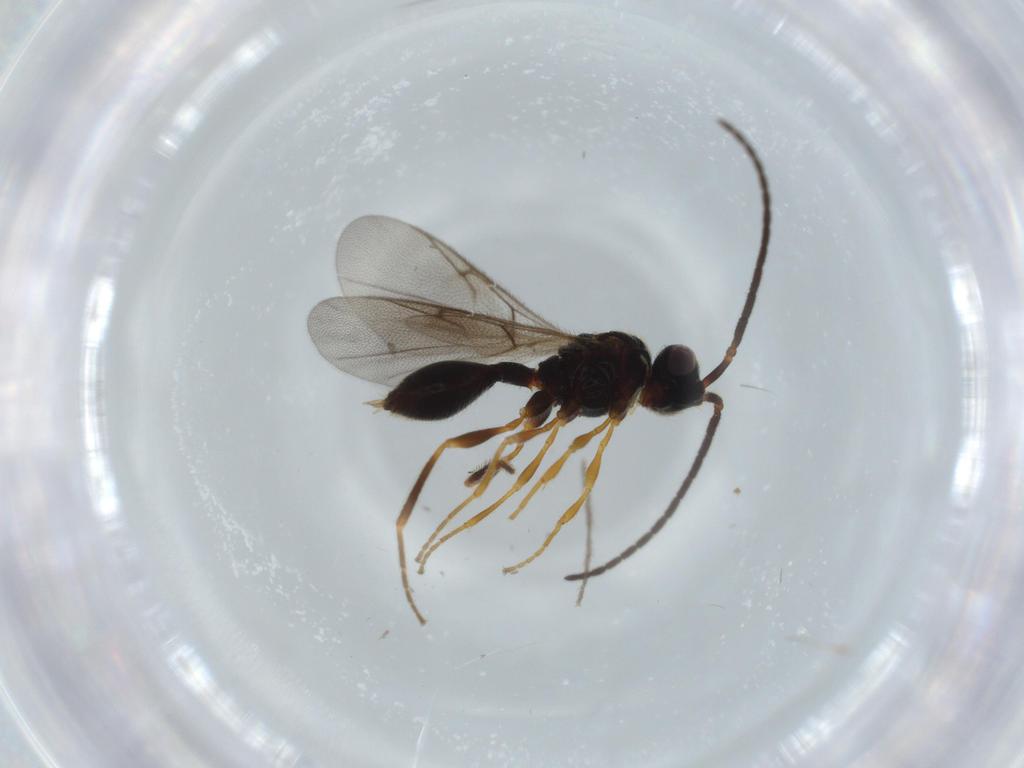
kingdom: Animalia
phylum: Arthropoda
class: Insecta
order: Hymenoptera
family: Diapriidae
